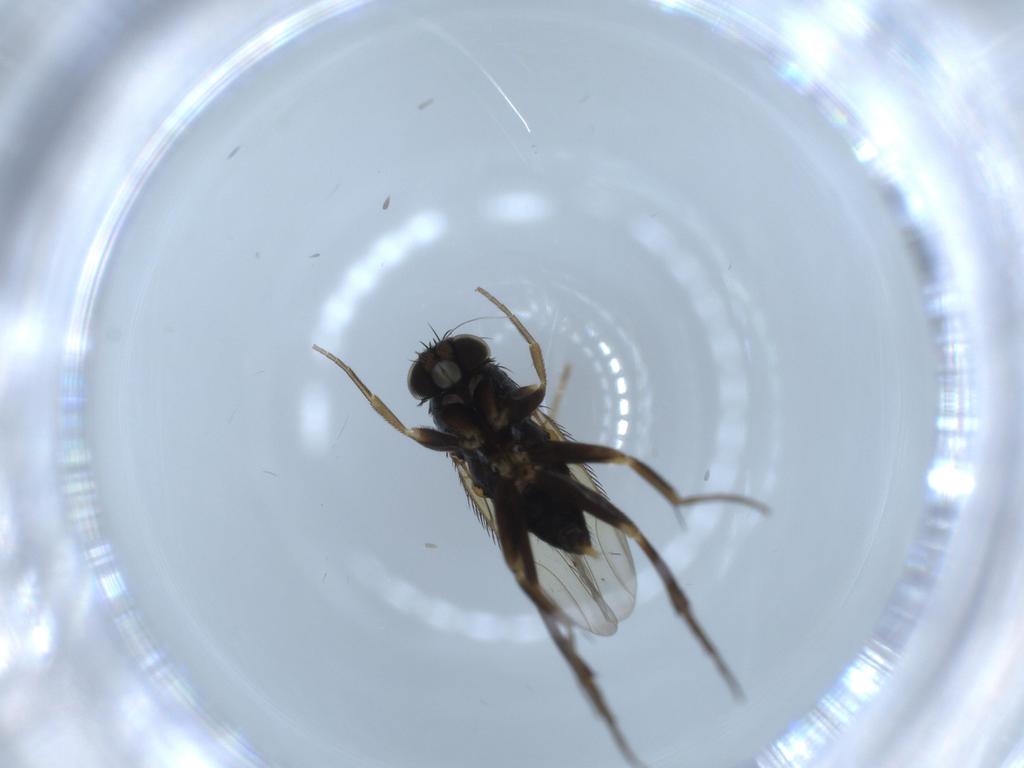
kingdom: Animalia
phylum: Arthropoda
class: Insecta
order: Diptera
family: Phoridae
